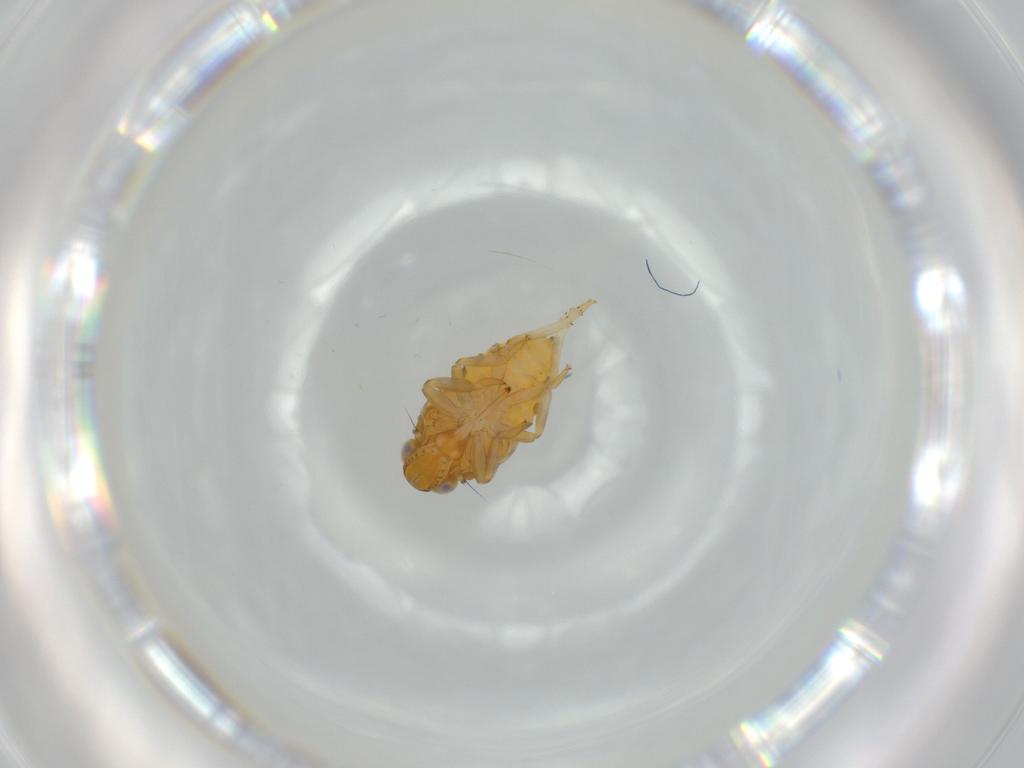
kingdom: Animalia
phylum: Arthropoda
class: Insecta
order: Hemiptera
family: Issidae
